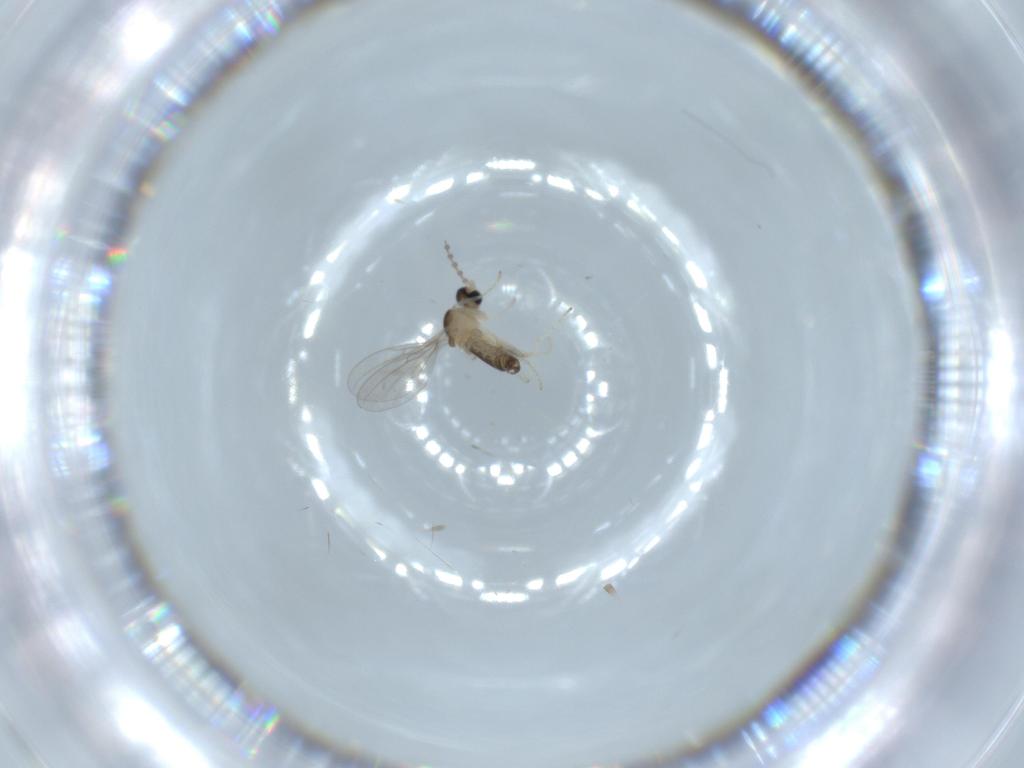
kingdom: Animalia
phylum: Arthropoda
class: Insecta
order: Diptera
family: Cecidomyiidae
